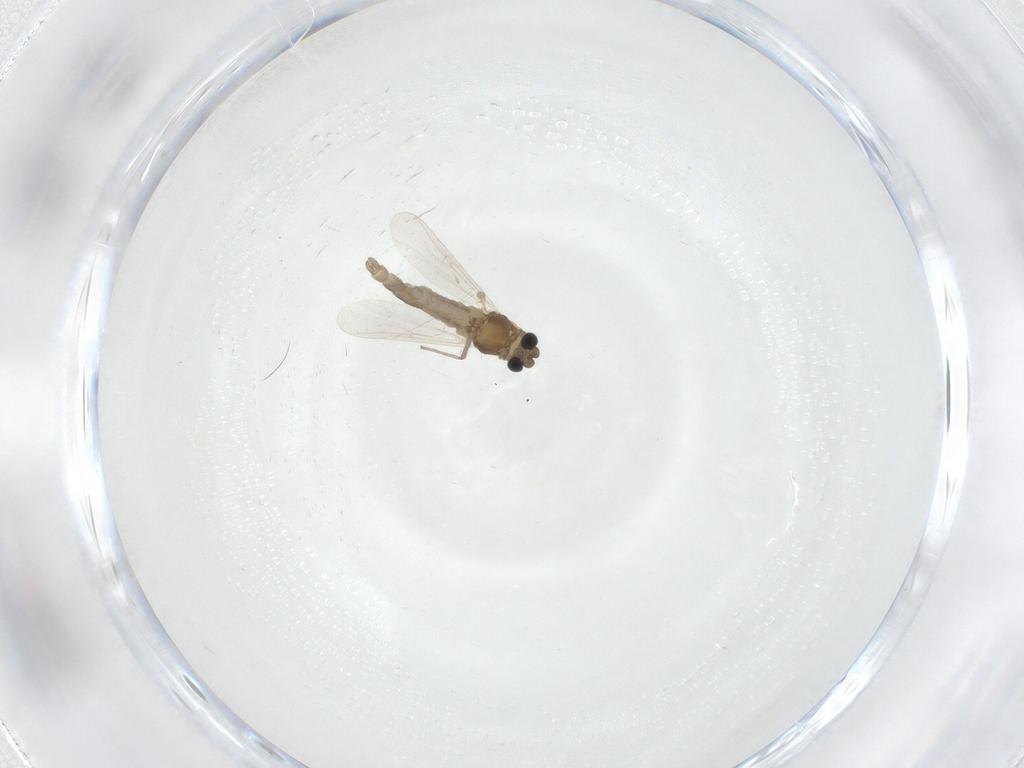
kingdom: Animalia
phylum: Arthropoda
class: Insecta
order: Diptera
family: Chironomidae
